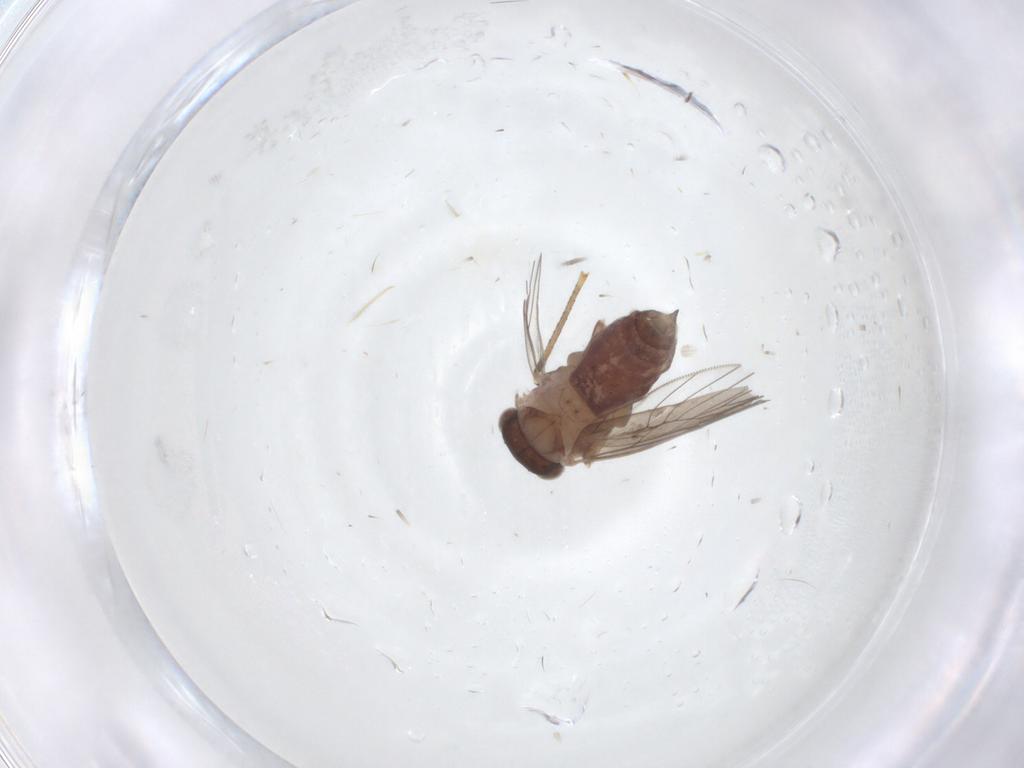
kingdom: Animalia
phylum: Arthropoda
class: Insecta
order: Psocodea
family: Lepidopsocidae
